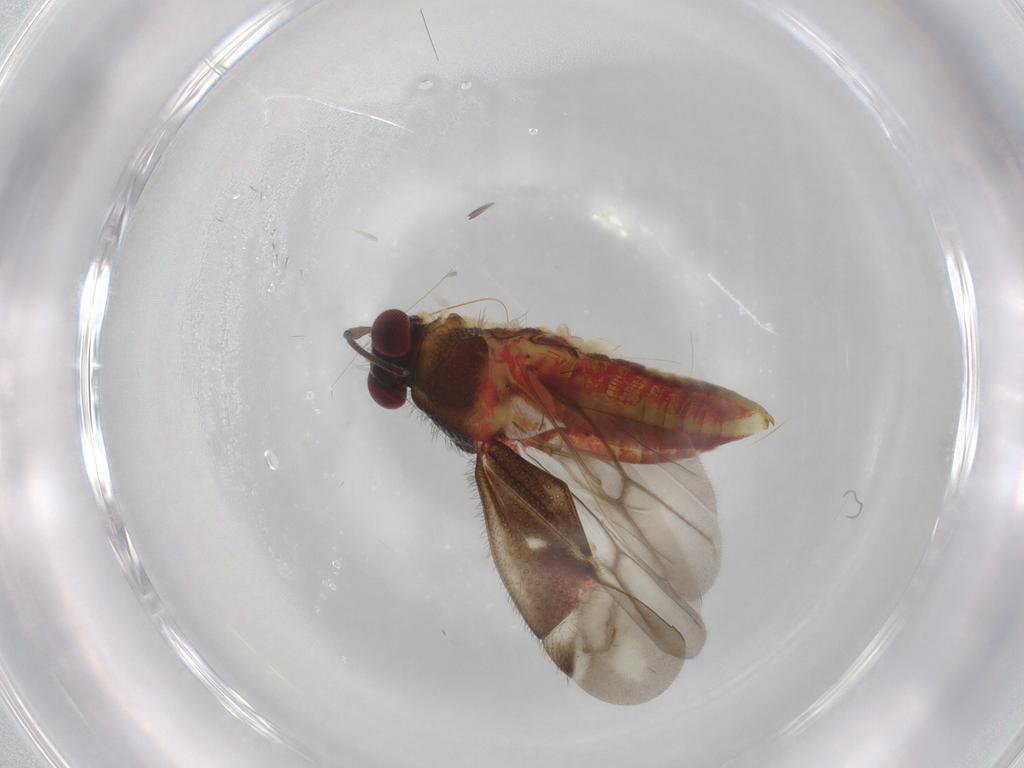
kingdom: Animalia
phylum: Arthropoda
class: Insecta
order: Hemiptera
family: Miridae
